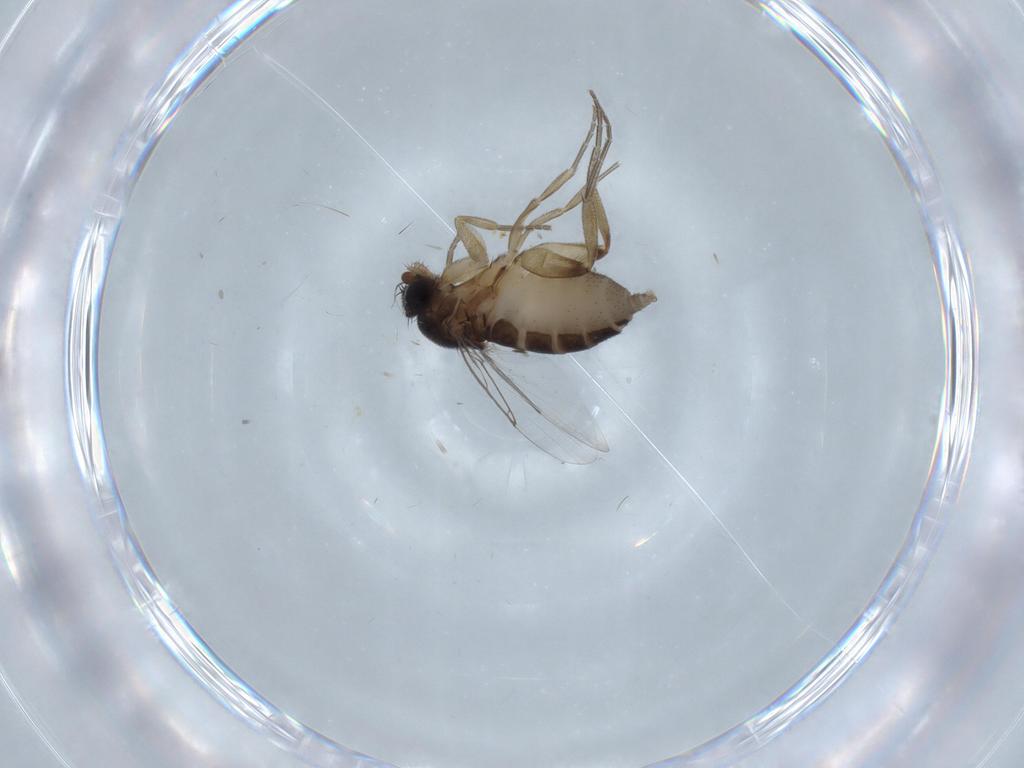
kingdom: Animalia
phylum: Arthropoda
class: Insecta
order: Diptera
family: Phoridae
